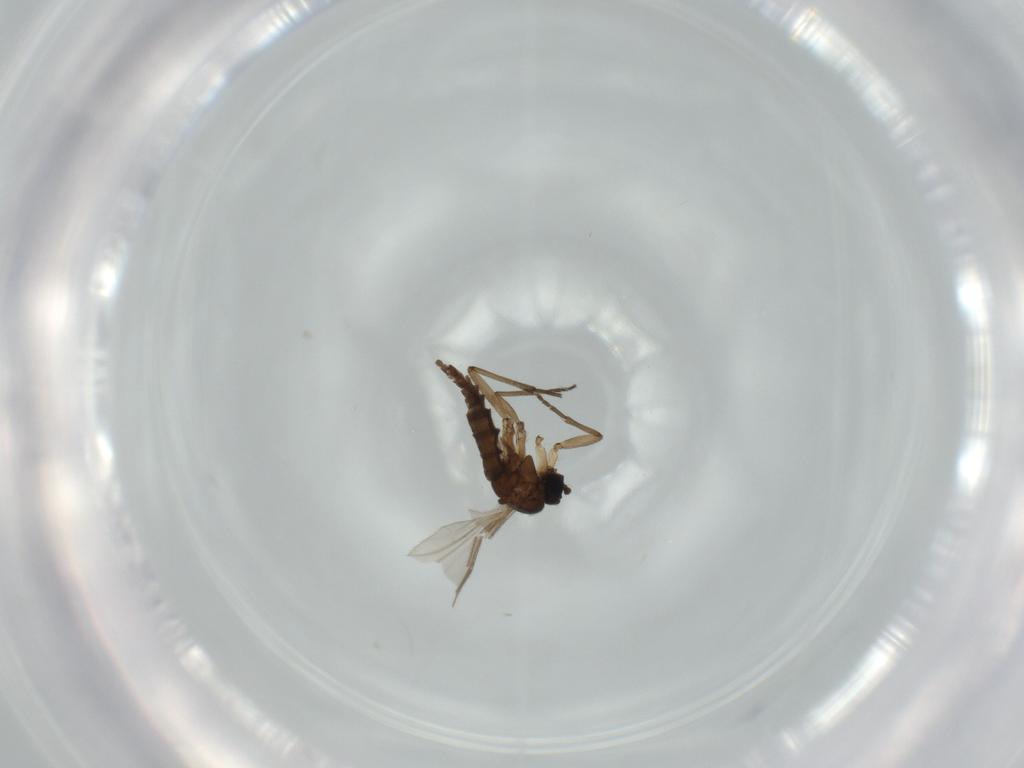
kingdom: Animalia
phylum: Arthropoda
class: Insecta
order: Diptera
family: Sciaridae
